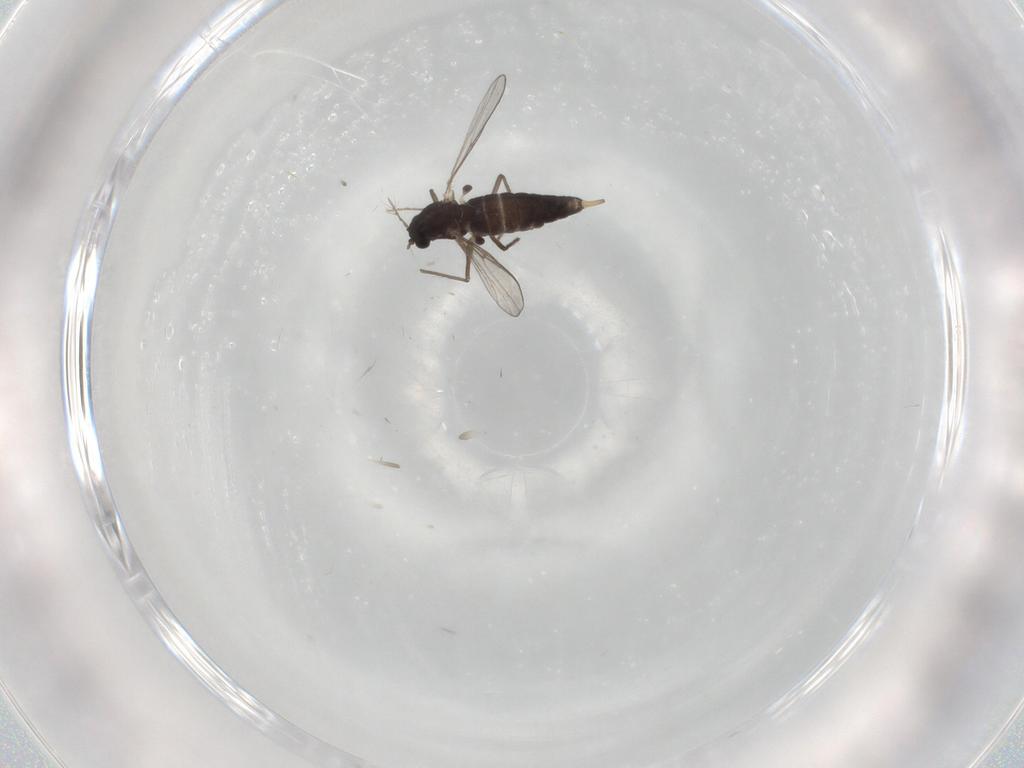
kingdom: Animalia
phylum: Arthropoda
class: Insecta
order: Diptera
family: Chironomidae
